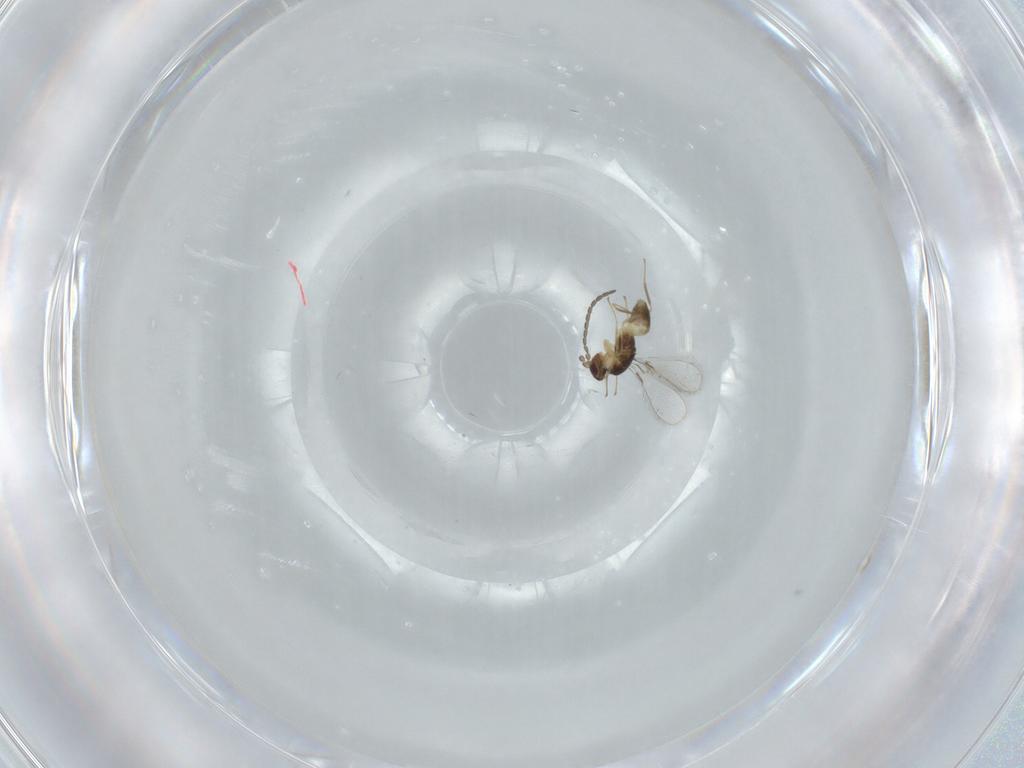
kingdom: Animalia
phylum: Arthropoda
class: Insecta
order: Hymenoptera
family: Mymaridae
